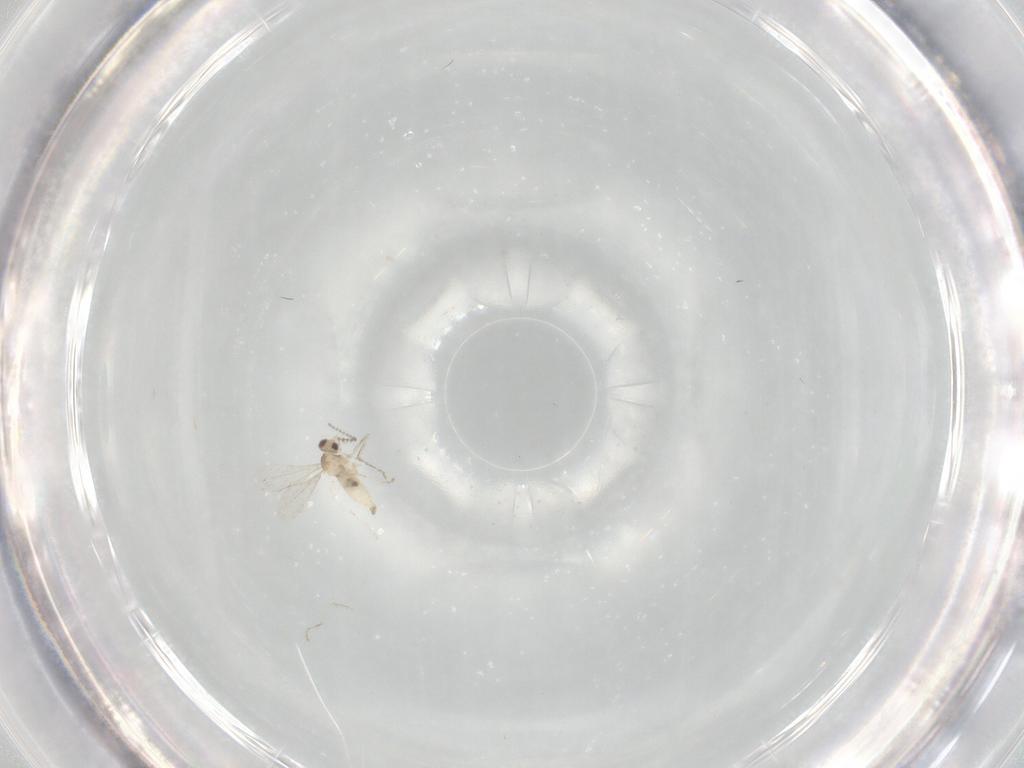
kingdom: Animalia
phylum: Arthropoda
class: Insecta
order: Diptera
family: Cecidomyiidae
